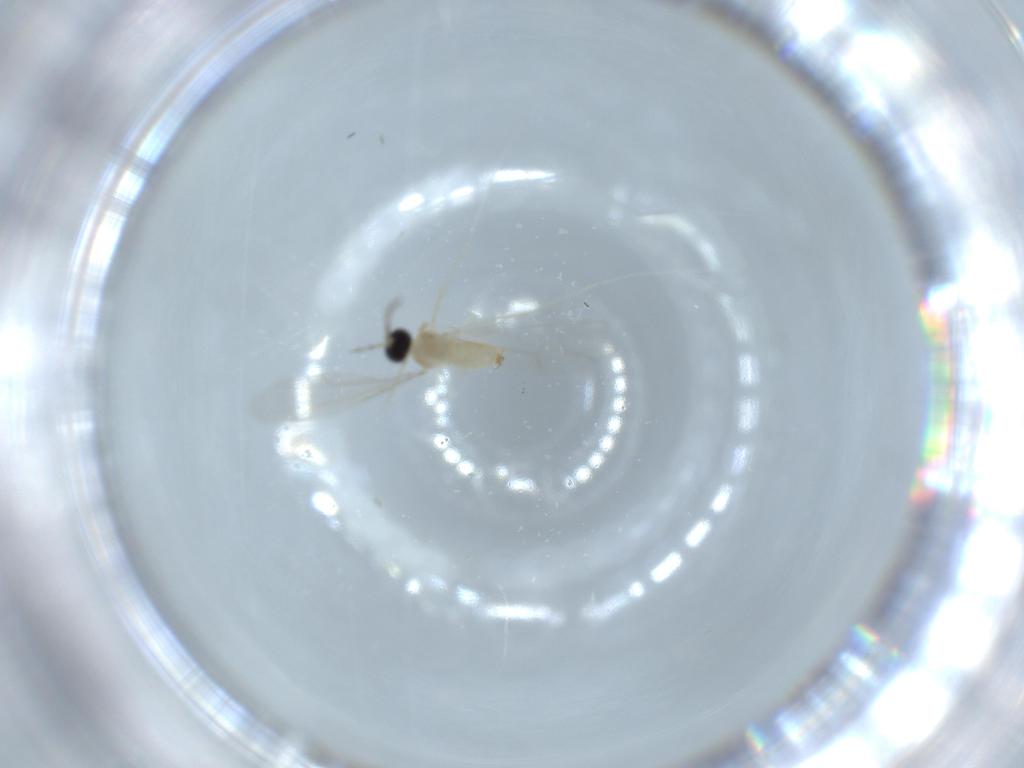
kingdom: Animalia
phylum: Arthropoda
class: Insecta
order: Diptera
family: Cecidomyiidae
